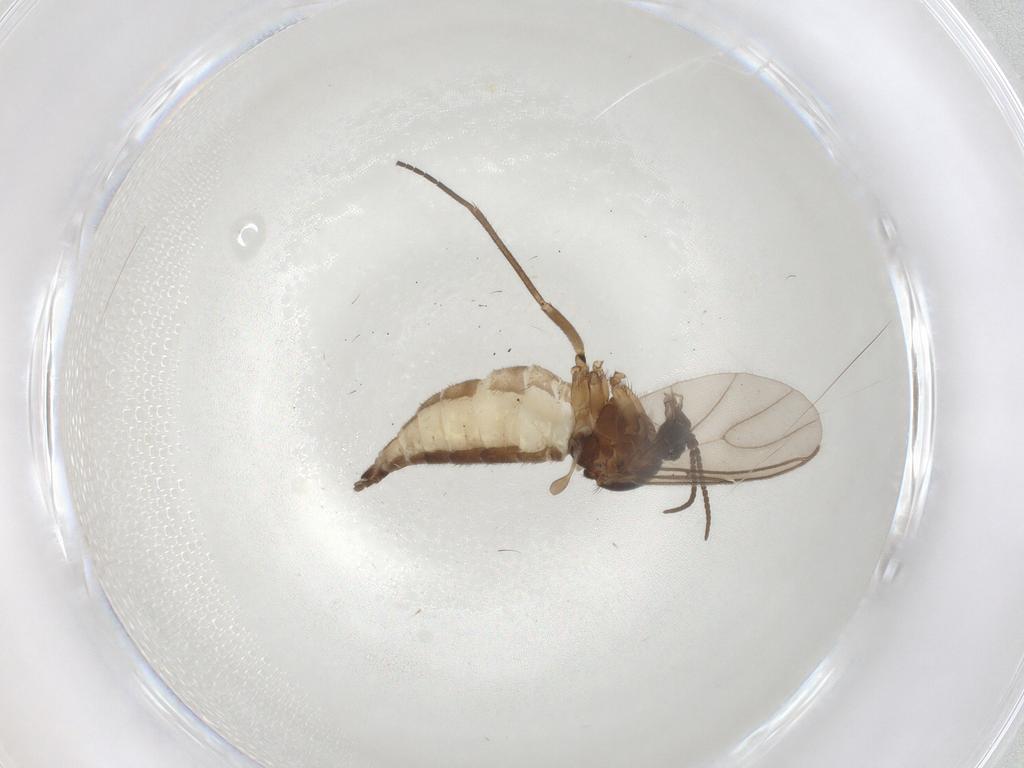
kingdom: Animalia
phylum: Arthropoda
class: Insecta
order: Diptera
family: Sciaridae
